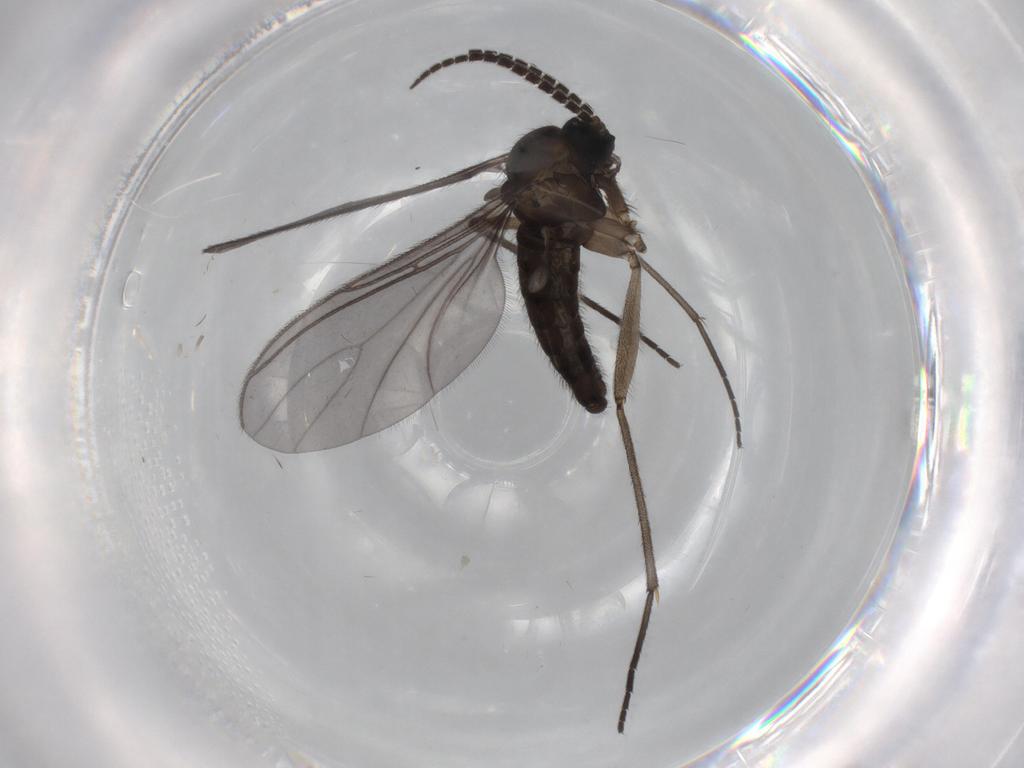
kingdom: Animalia
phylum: Arthropoda
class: Insecta
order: Diptera
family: Sciaridae
